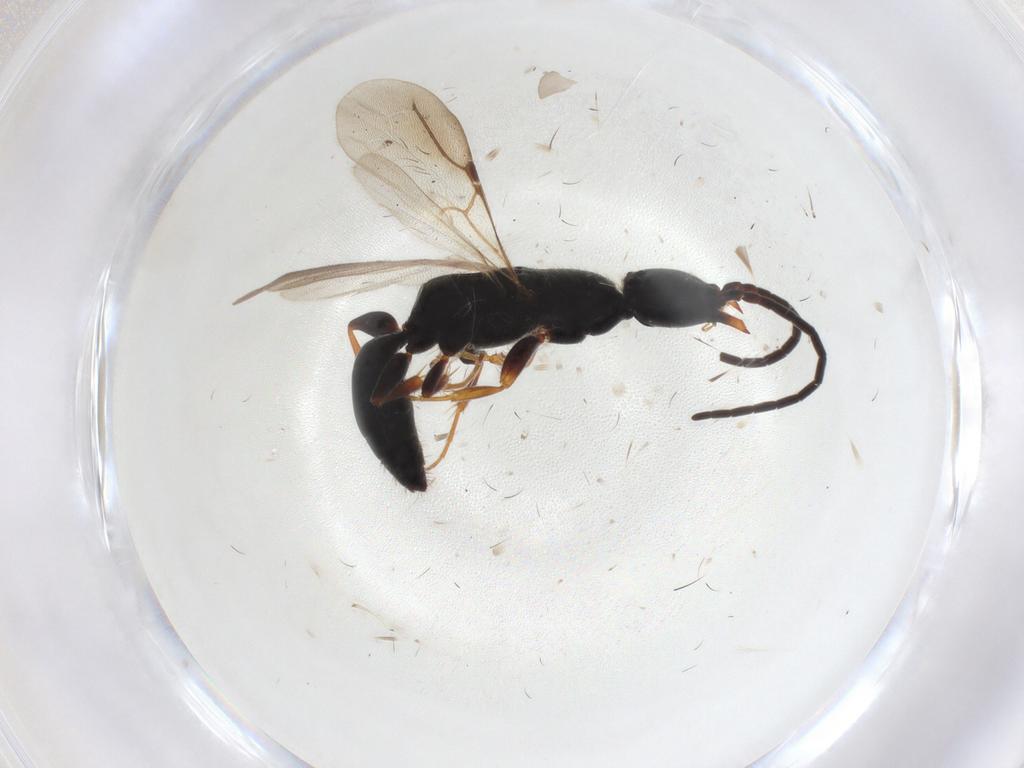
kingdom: Animalia
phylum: Arthropoda
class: Insecta
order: Hymenoptera
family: Bethylidae
